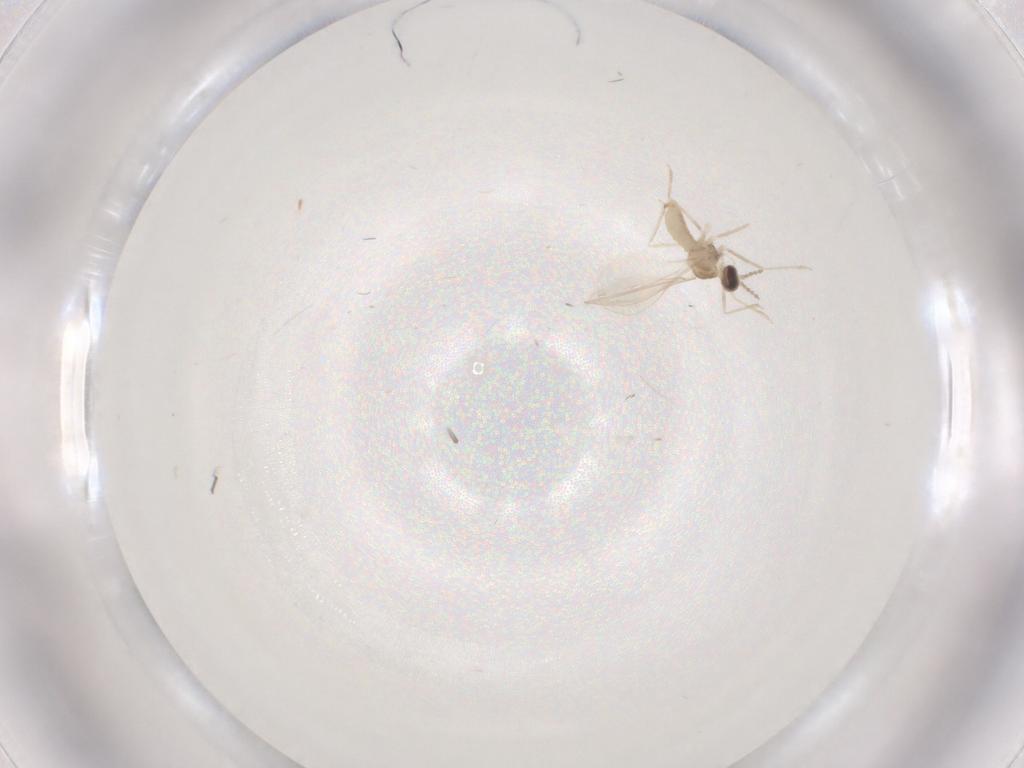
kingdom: Animalia
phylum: Arthropoda
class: Insecta
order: Diptera
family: Cecidomyiidae
